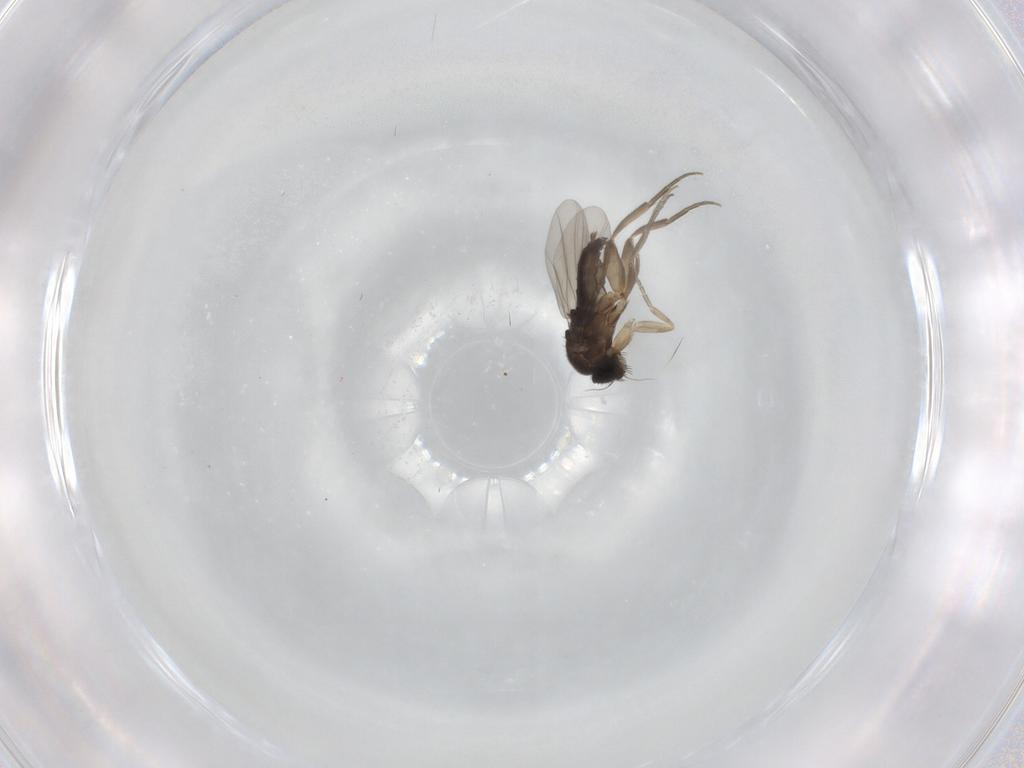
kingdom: Animalia
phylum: Arthropoda
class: Insecta
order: Diptera
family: Phoridae
